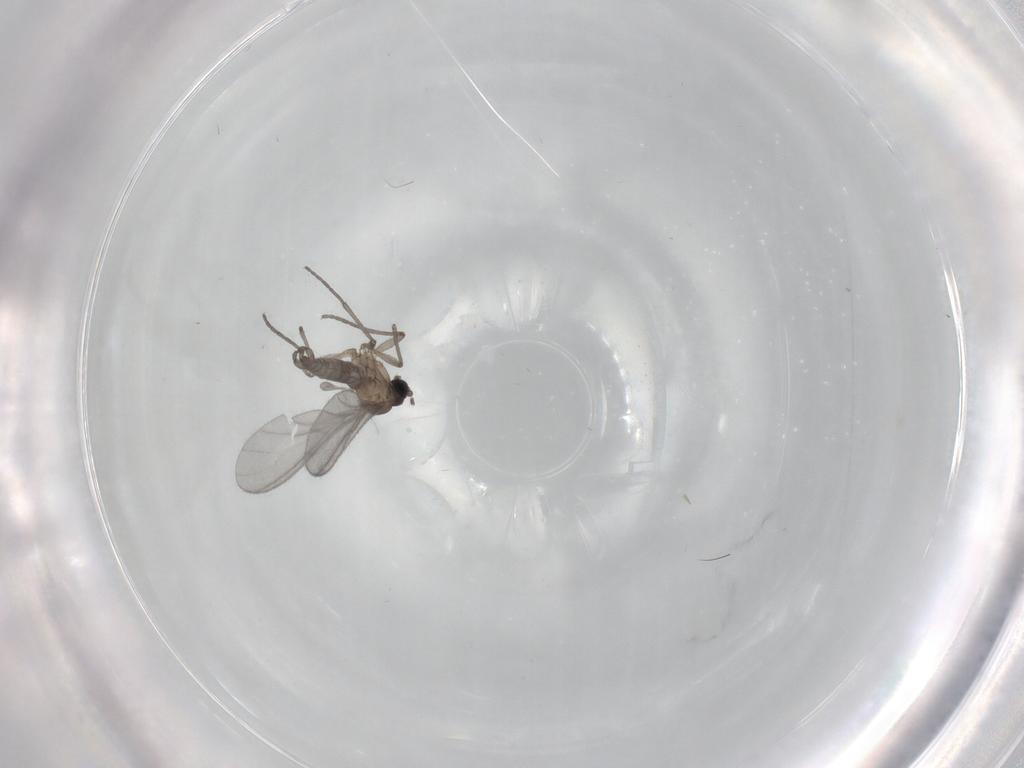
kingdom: Animalia
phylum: Arthropoda
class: Insecta
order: Diptera
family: Sciaridae
